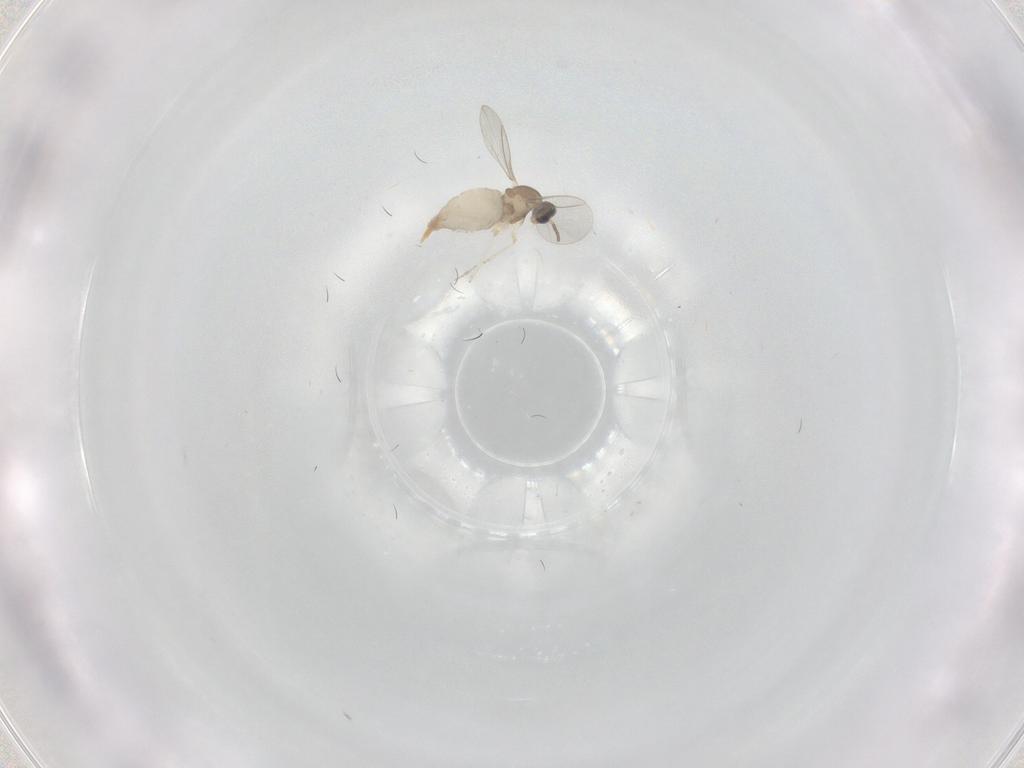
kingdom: Animalia
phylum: Arthropoda
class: Insecta
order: Diptera
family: Cecidomyiidae
